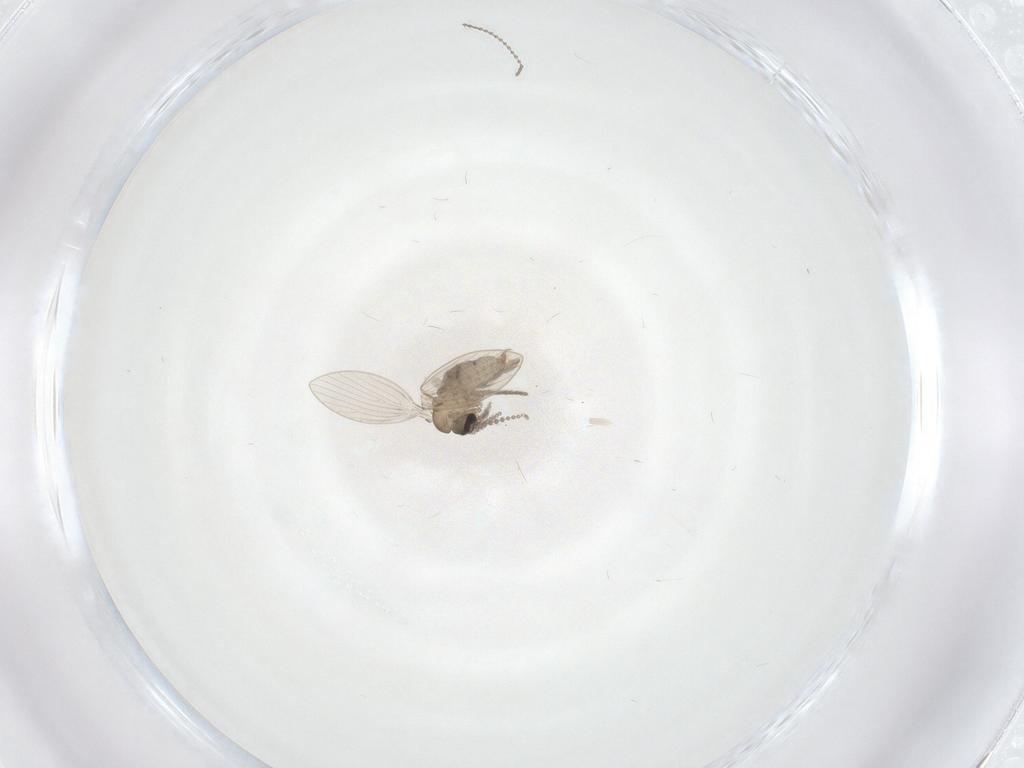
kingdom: Animalia
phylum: Arthropoda
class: Insecta
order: Diptera
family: Psychodidae
